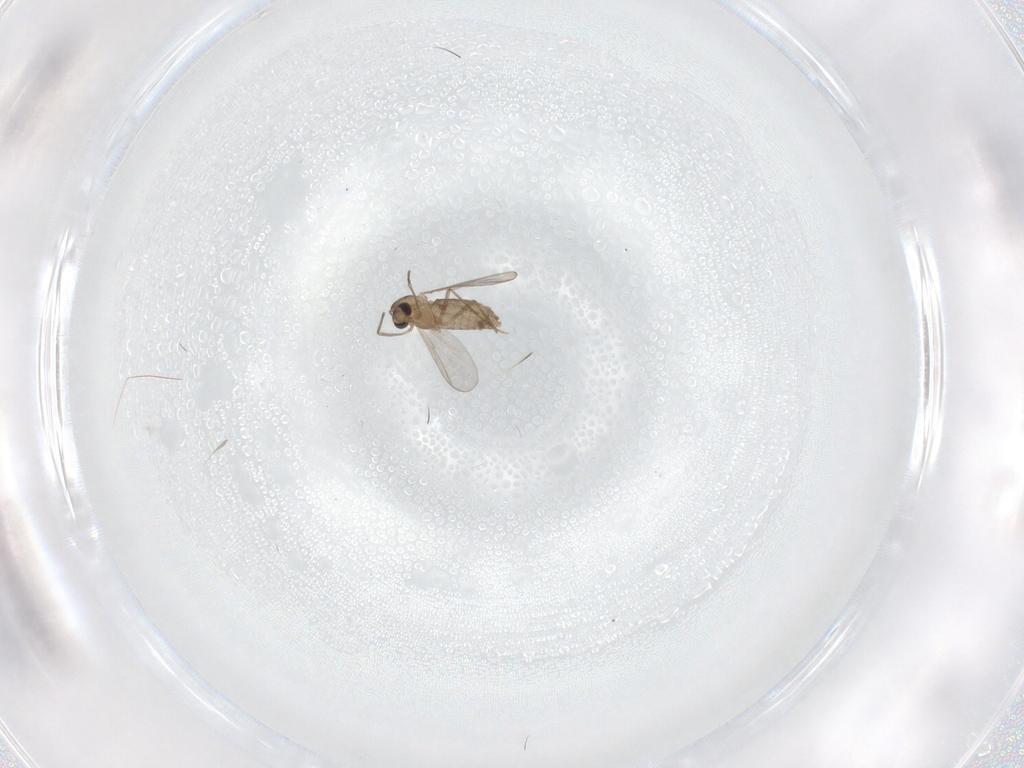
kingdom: Animalia
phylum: Arthropoda
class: Insecta
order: Diptera
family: Chironomidae
